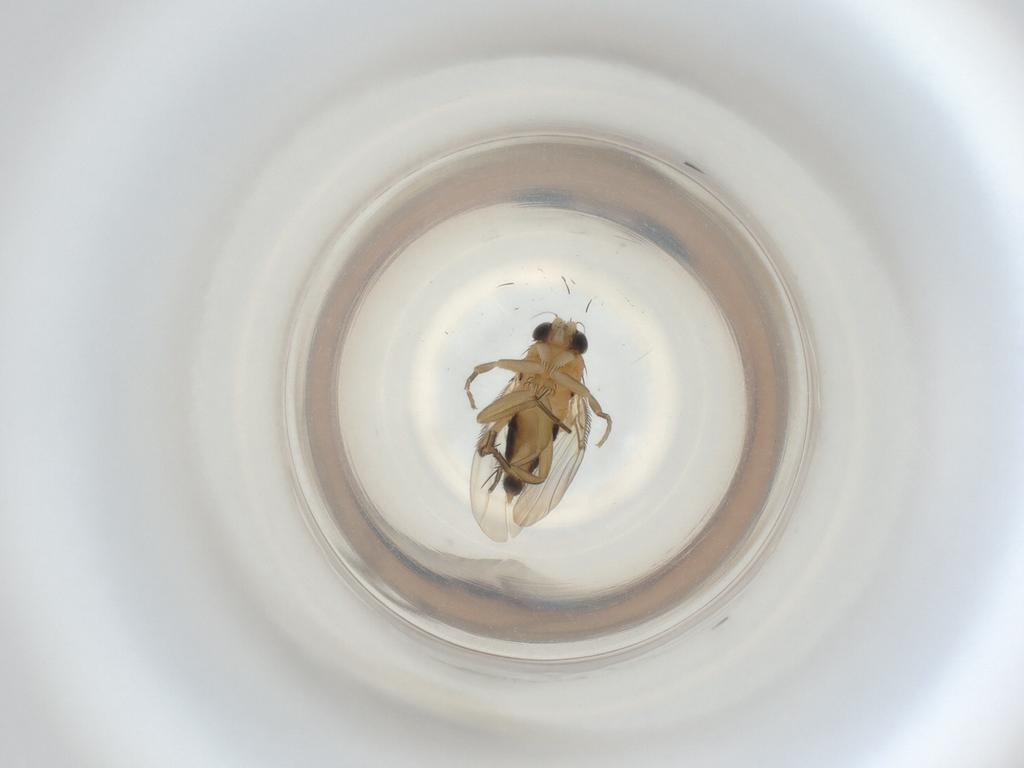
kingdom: Animalia
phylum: Arthropoda
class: Insecta
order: Diptera
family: Phoridae
